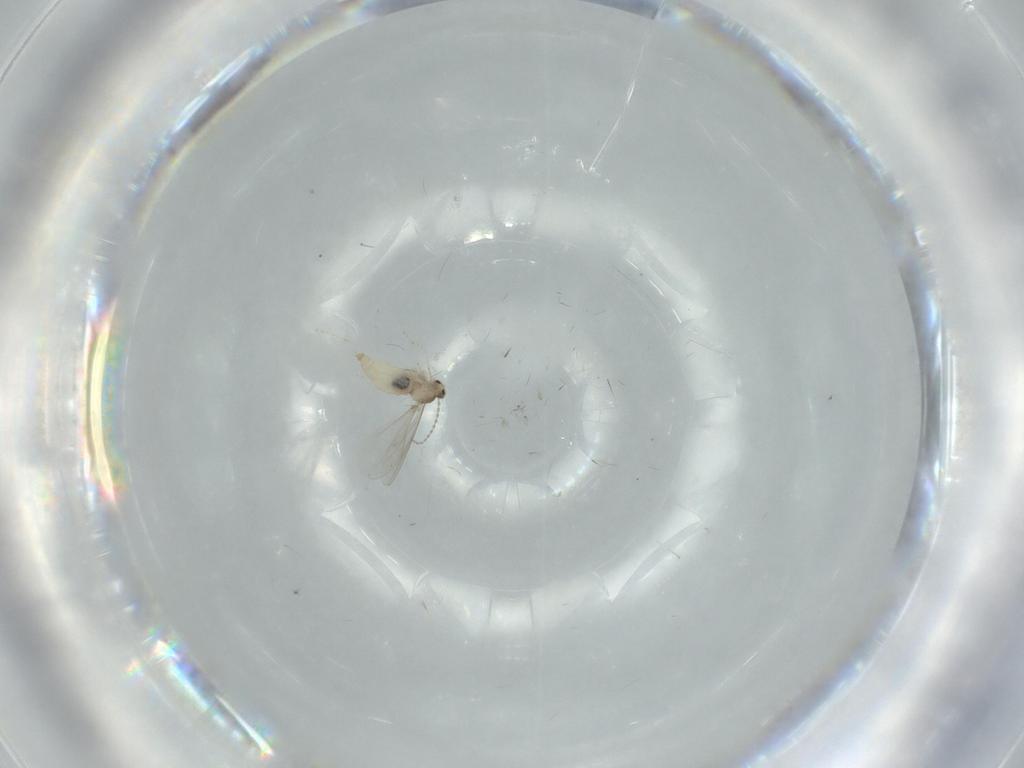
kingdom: Animalia
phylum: Arthropoda
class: Insecta
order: Diptera
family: Cecidomyiidae
